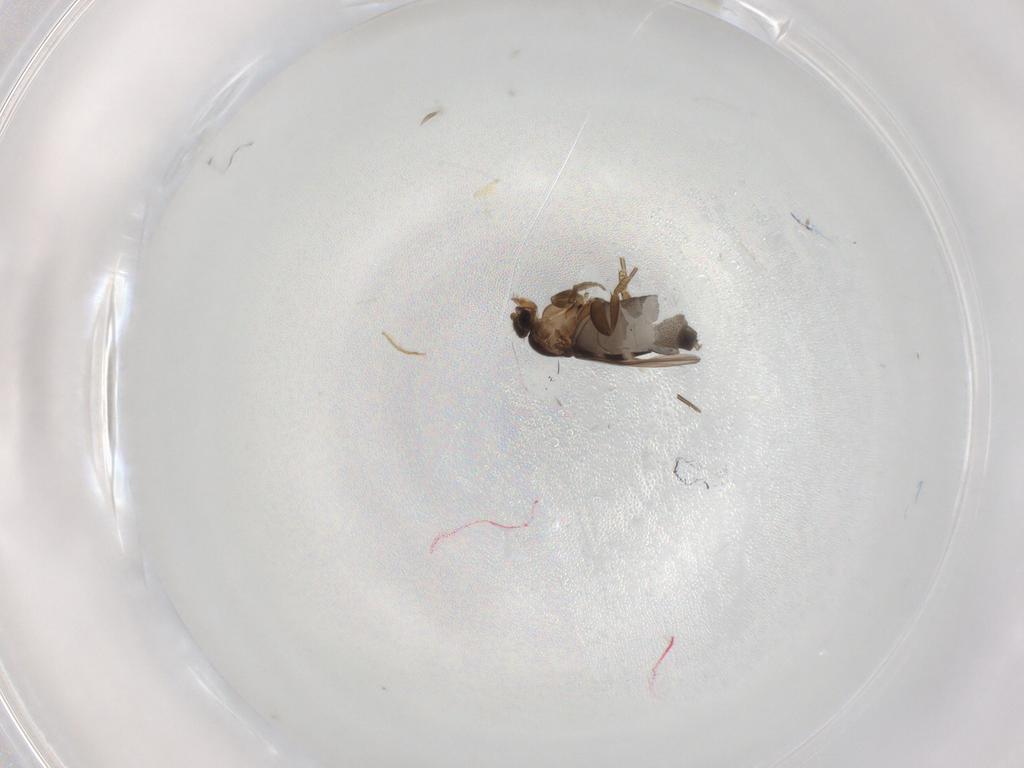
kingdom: Animalia
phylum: Arthropoda
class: Insecta
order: Diptera
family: Phoridae
